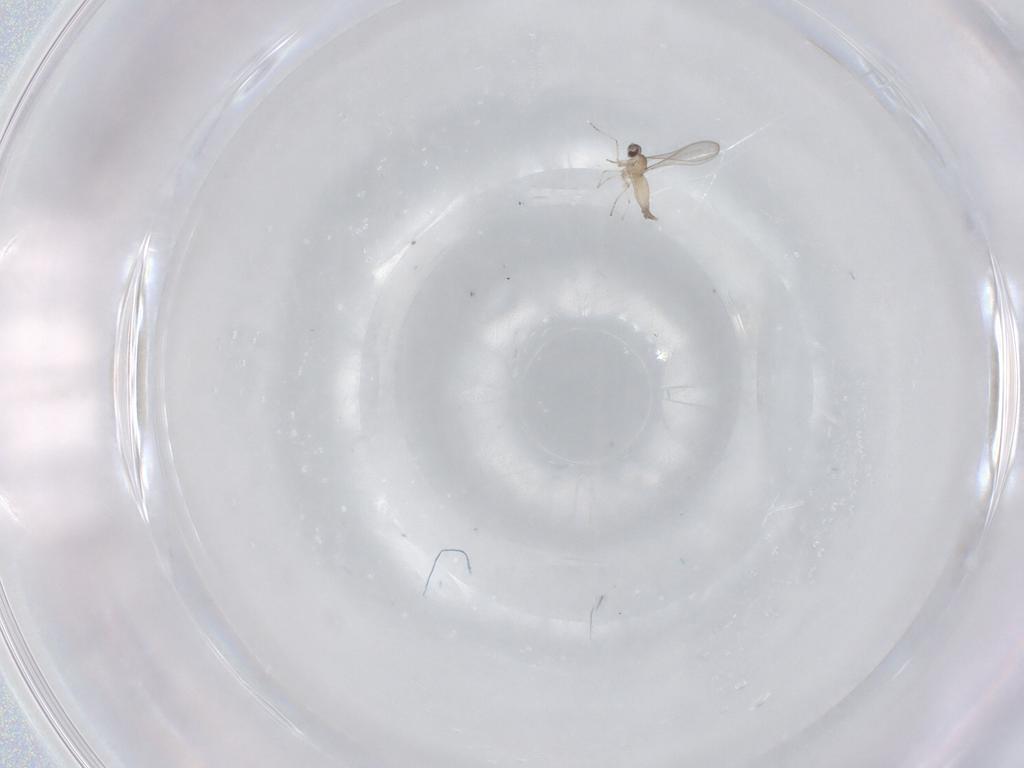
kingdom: Animalia
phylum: Arthropoda
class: Insecta
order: Diptera
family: Cecidomyiidae
